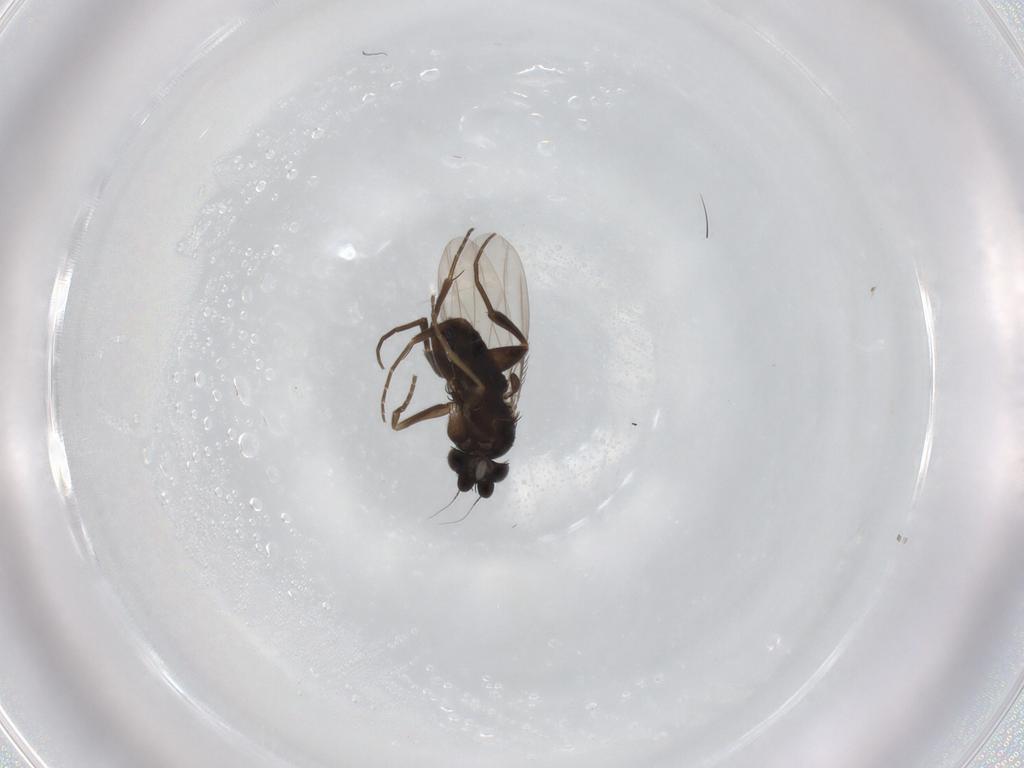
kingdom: Animalia
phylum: Arthropoda
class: Insecta
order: Diptera
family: Phoridae
